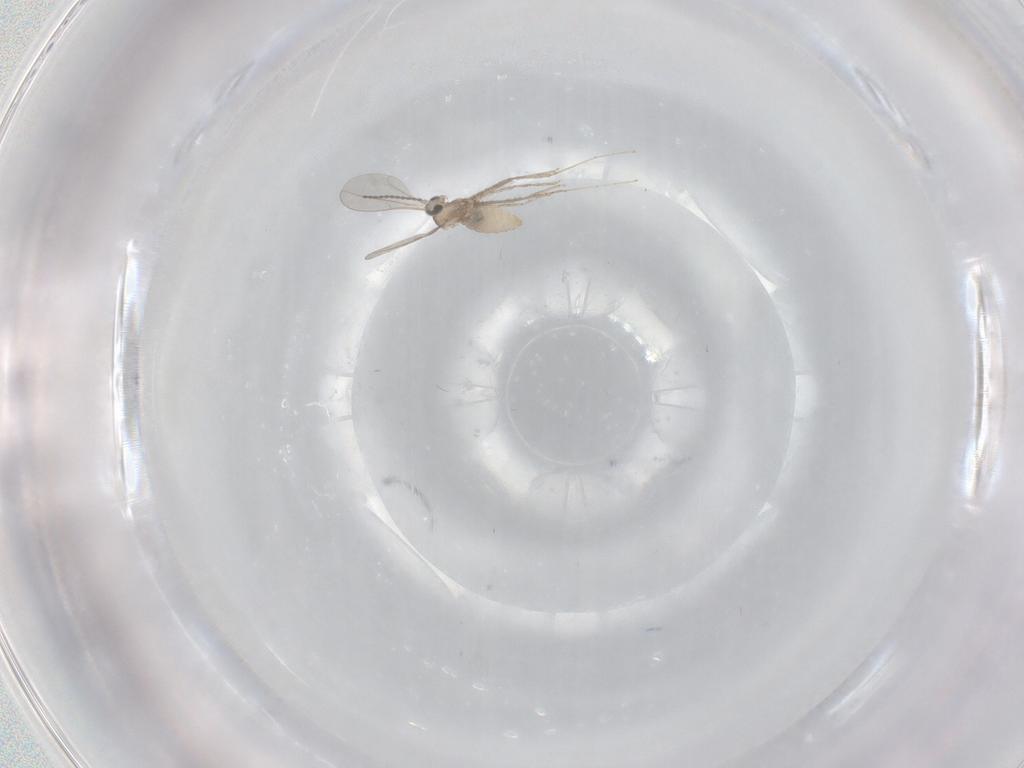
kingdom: Animalia
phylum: Arthropoda
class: Insecta
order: Diptera
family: Cecidomyiidae
